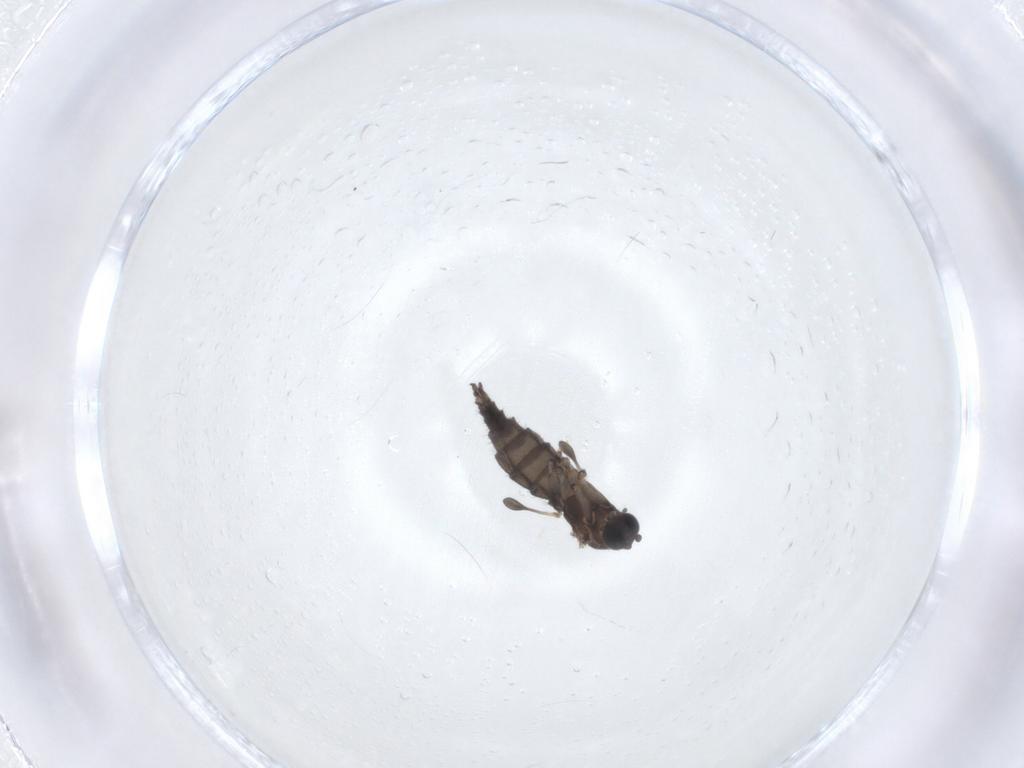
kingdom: Animalia
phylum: Arthropoda
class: Insecta
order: Diptera
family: Sciaridae
